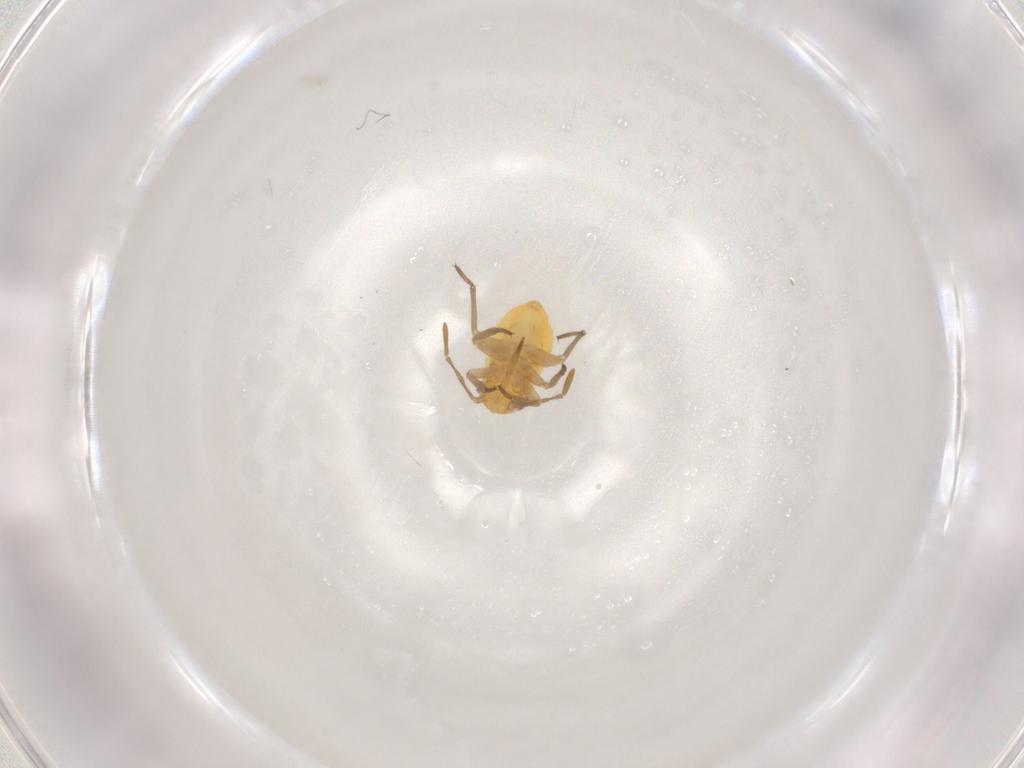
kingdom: Animalia
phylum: Arthropoda
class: Insecta
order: Hemiptera
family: Miridae
